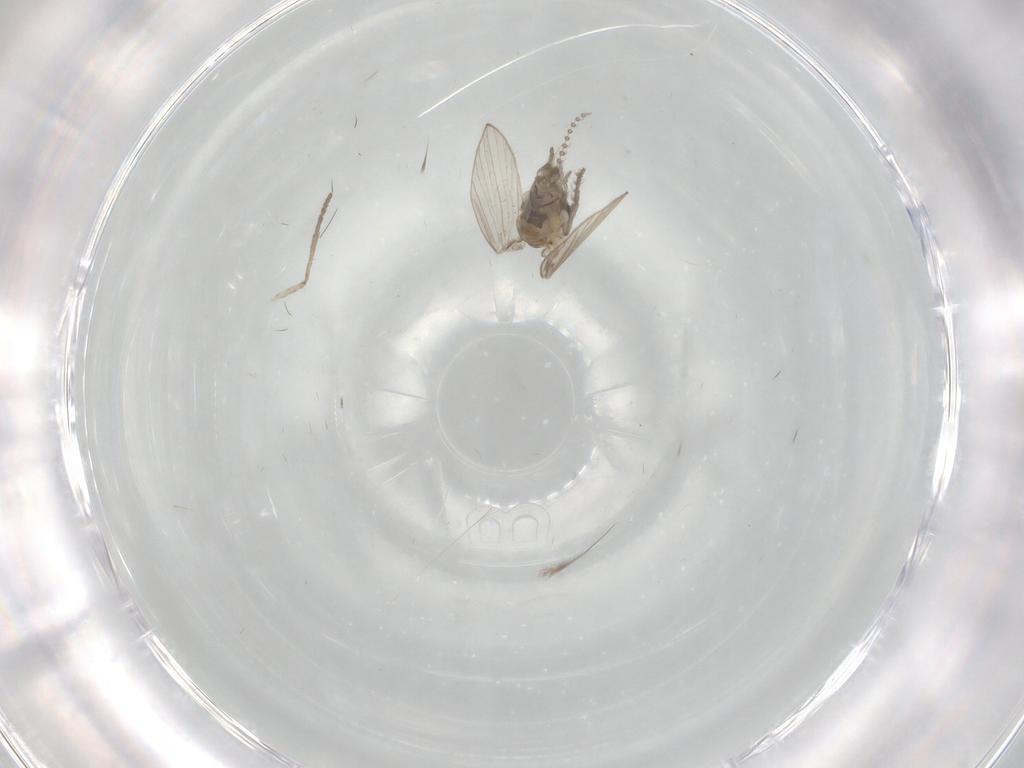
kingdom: Animalia
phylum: Arthropoda
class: Insecta
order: Diptera
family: Psychodidae
